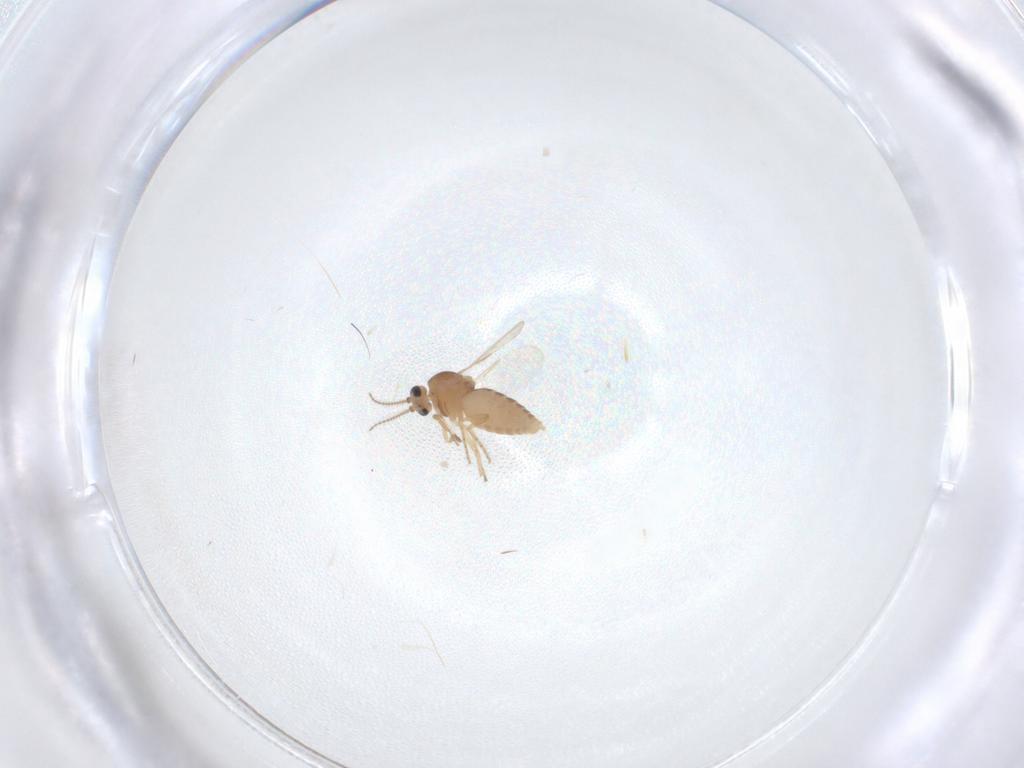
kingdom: Animalia
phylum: Arthropoda
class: Insecta
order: Diptera
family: Ceratopogonidae
